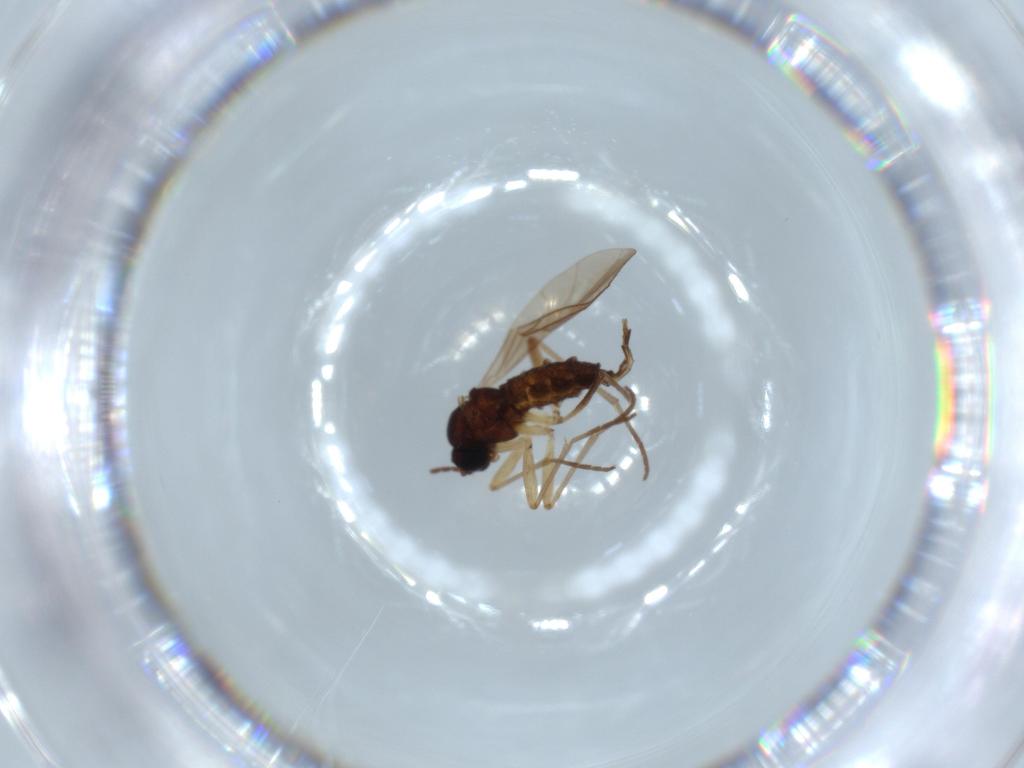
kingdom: Animalia
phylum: Arthropoda
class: Insecta
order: Diptera
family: Sciaridae
